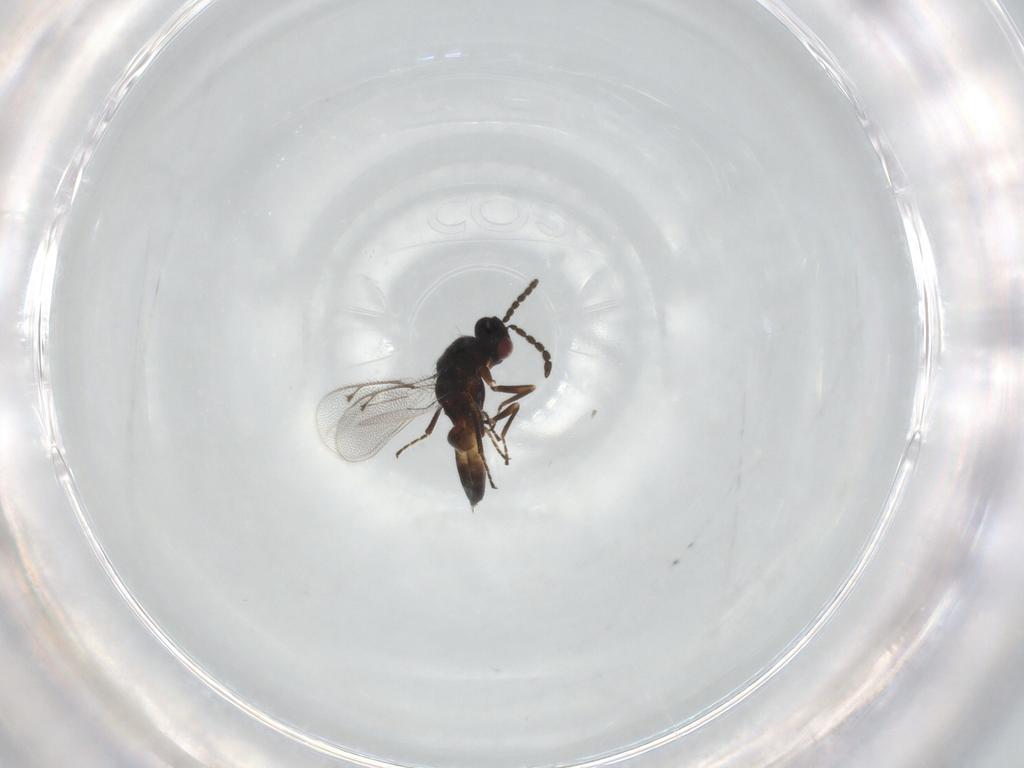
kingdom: Animalia
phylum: Arthropoda
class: Insecta
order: Hymenoptera
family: Eulophidae
